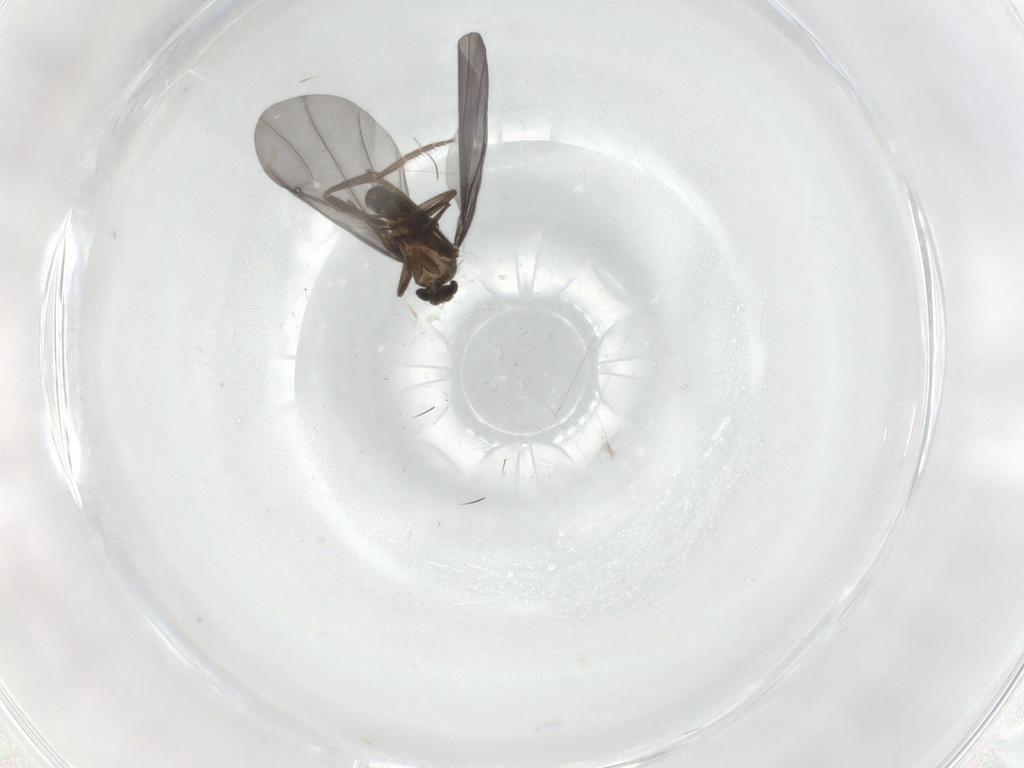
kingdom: Animalia
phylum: Arthropoda
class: Insecta
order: Diptera
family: Phoridae
